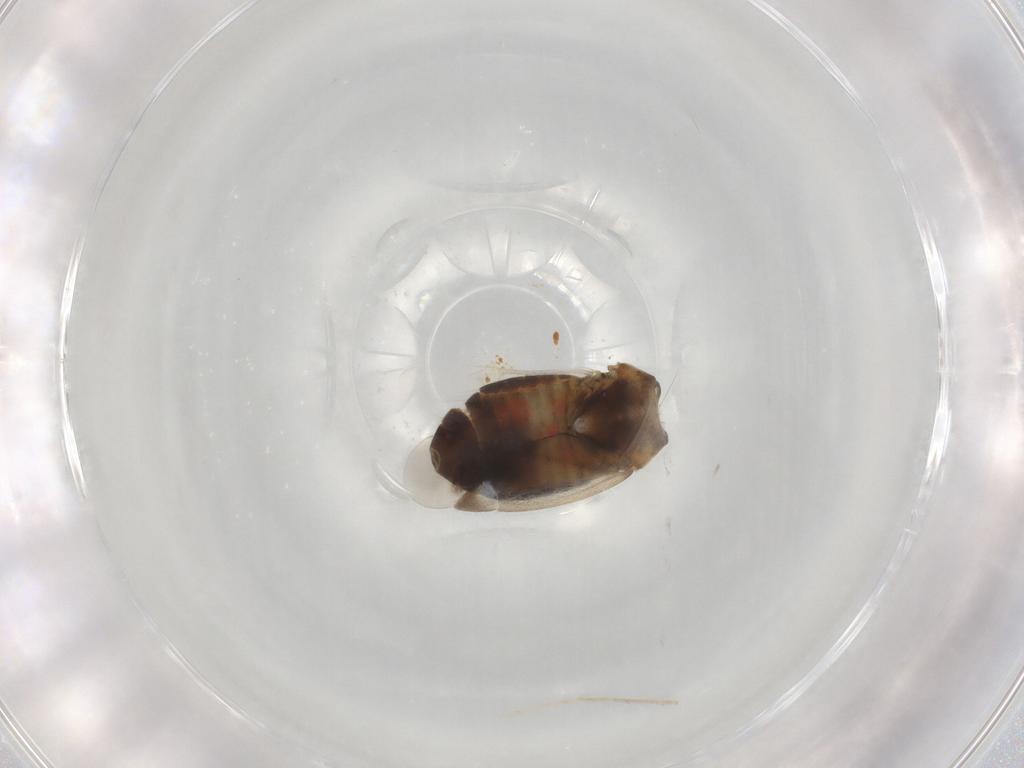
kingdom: Animalia
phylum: Arthropoda
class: Insecta
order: Hemiptera
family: Miridae
